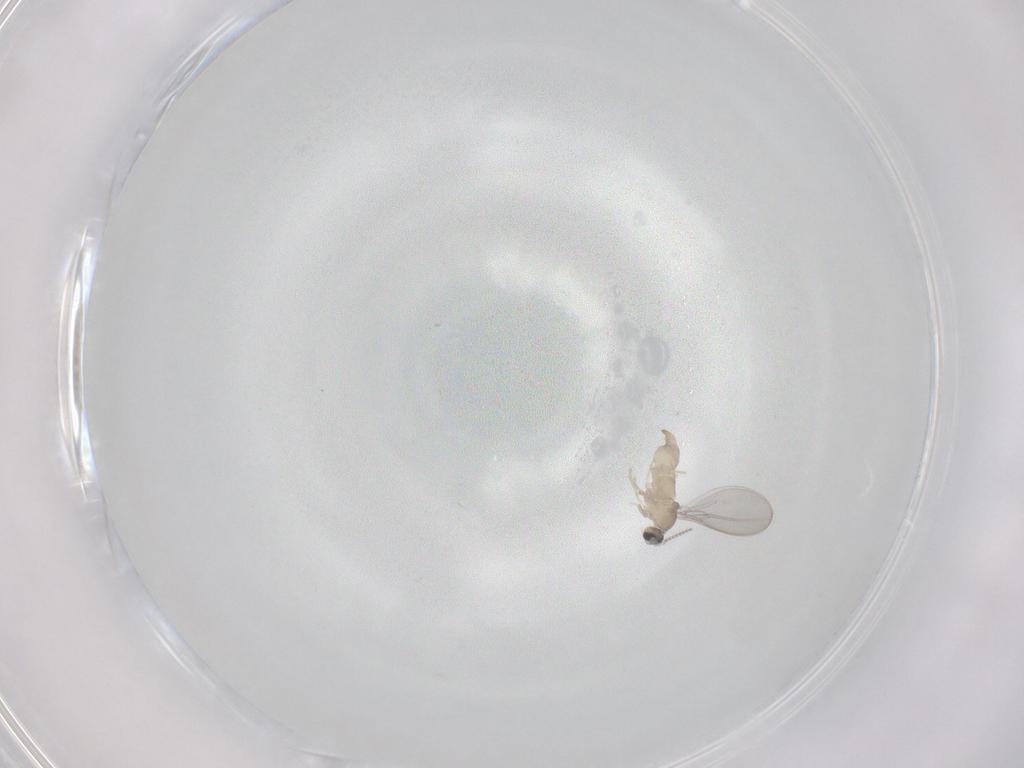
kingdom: Animalia
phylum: Arthropoda
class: Insecta
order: Diptera
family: Cecidomyiidae
